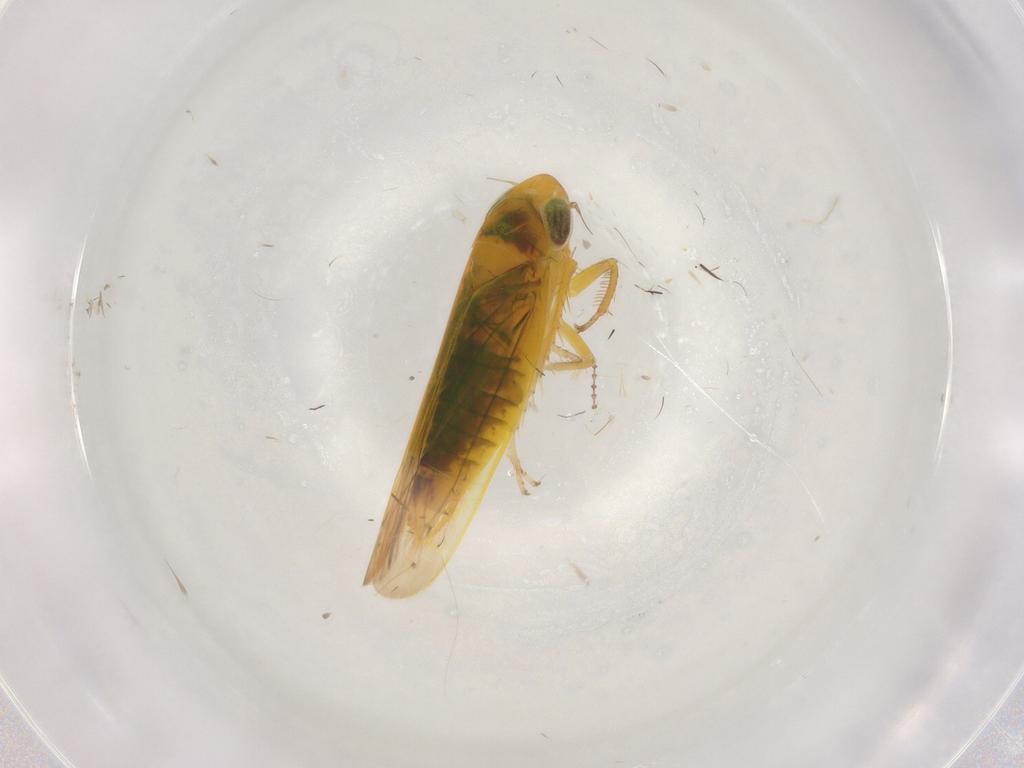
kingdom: Animalia
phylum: Arthropoda
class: Insecta
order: Hemiptera
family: Cicadellidae
